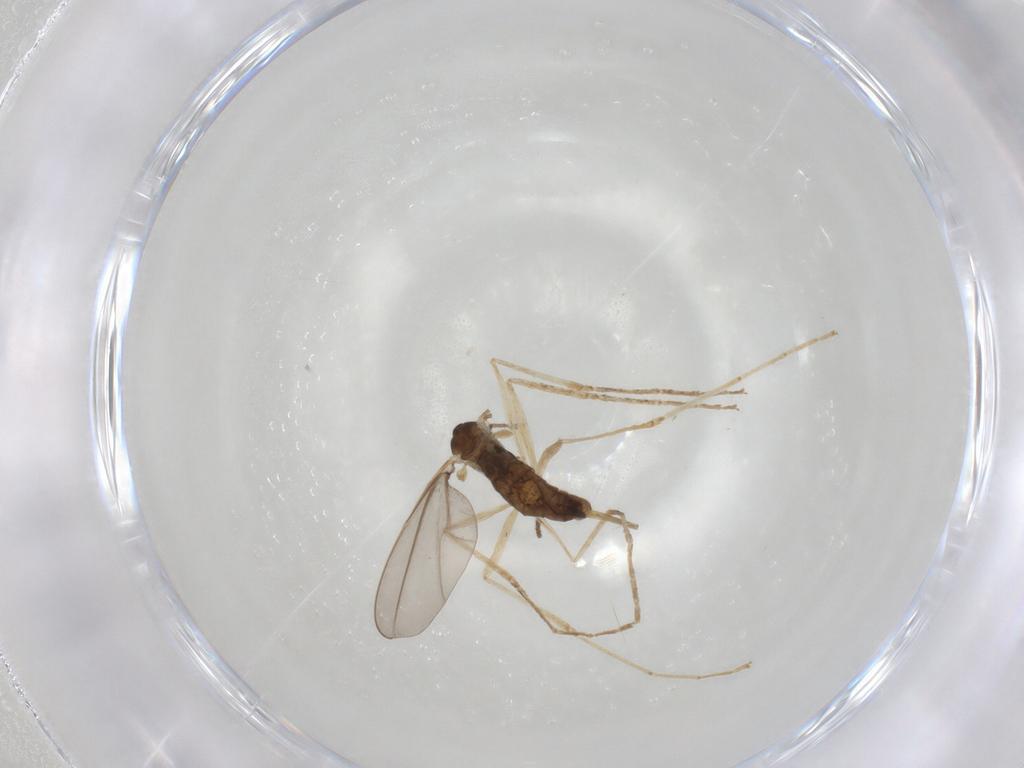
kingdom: Animalia
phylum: Arthropoda
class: Insecta
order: Diptera
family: Cecidomyiidae
